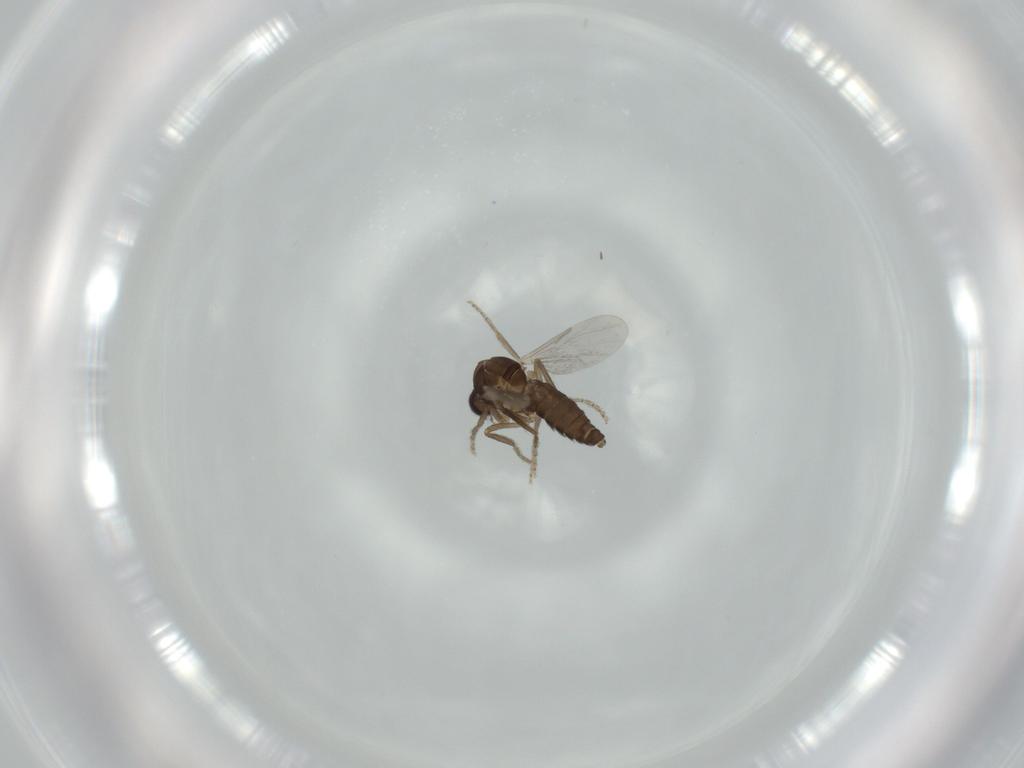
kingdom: Animalia
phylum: Arthropoda
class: Insecta
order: Diptera
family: Ceratopogonidae
